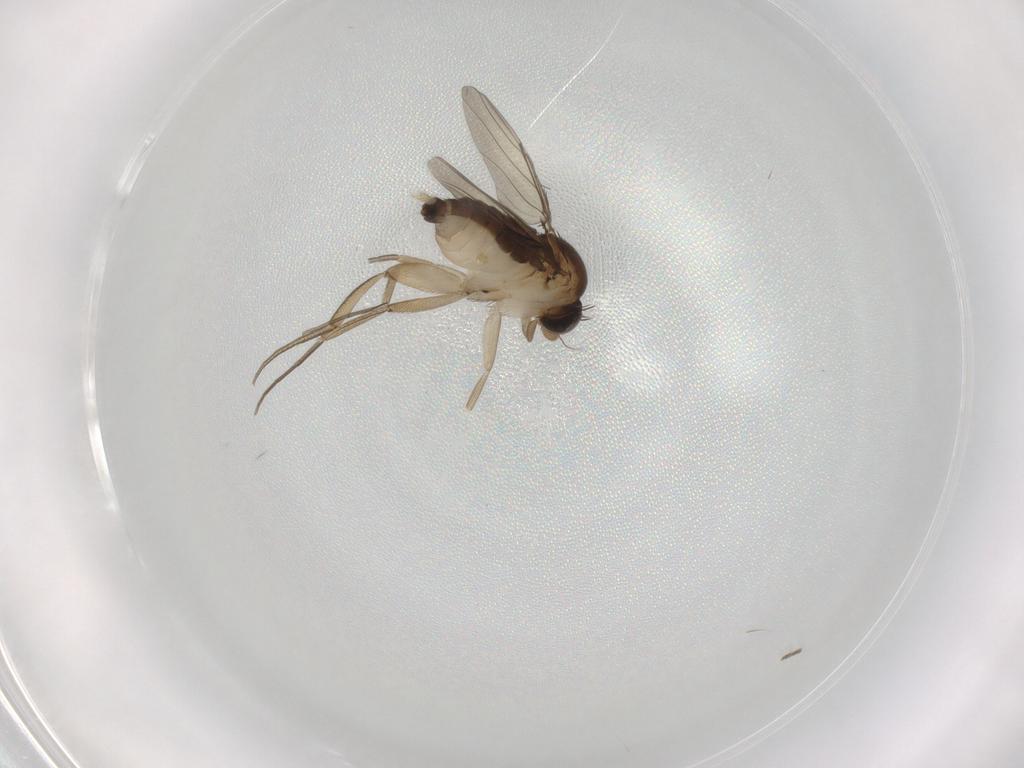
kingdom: Animalia
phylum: Arthropoda
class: Insecta
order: Diptera
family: Phoridae
